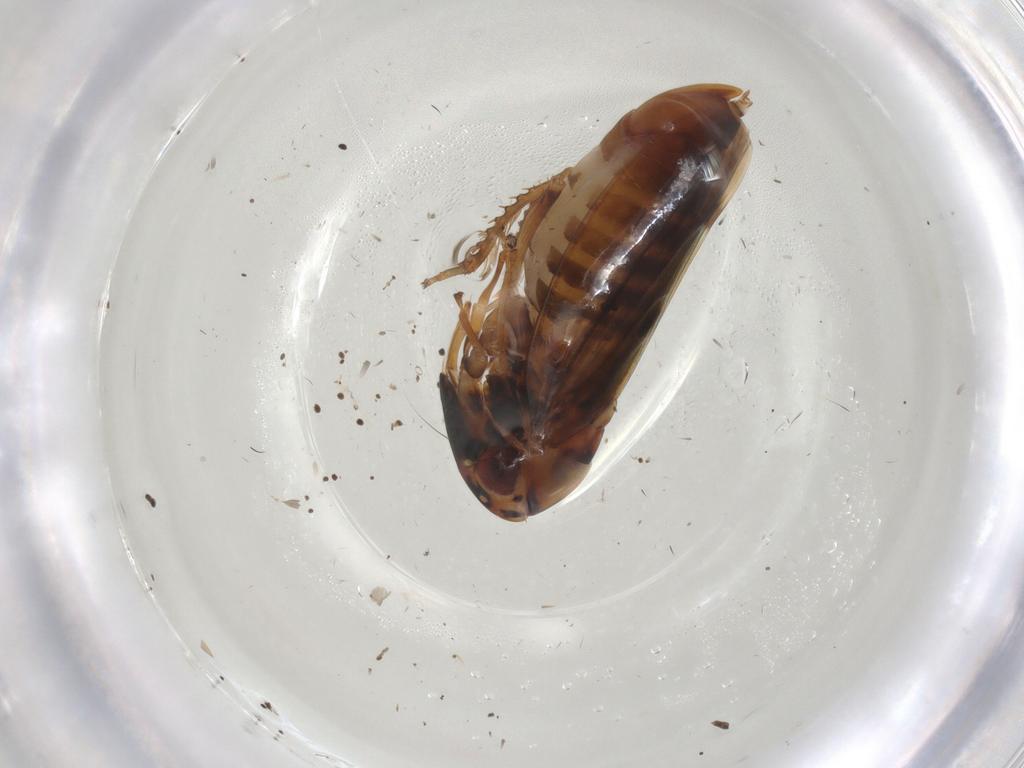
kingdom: Animalia
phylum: Arthropoda
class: Insecta
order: Hemiptera
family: Cicadellidae
